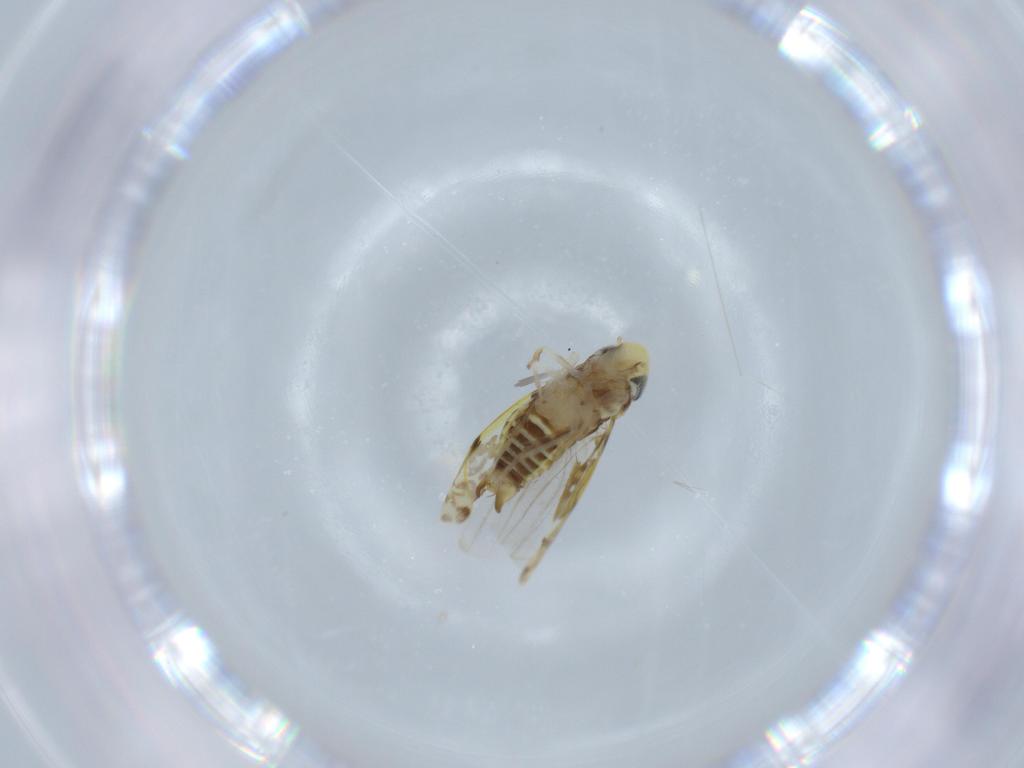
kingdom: Animalia
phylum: Arthropoda
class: Insecta
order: Hemiptera
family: Cicadellidae
